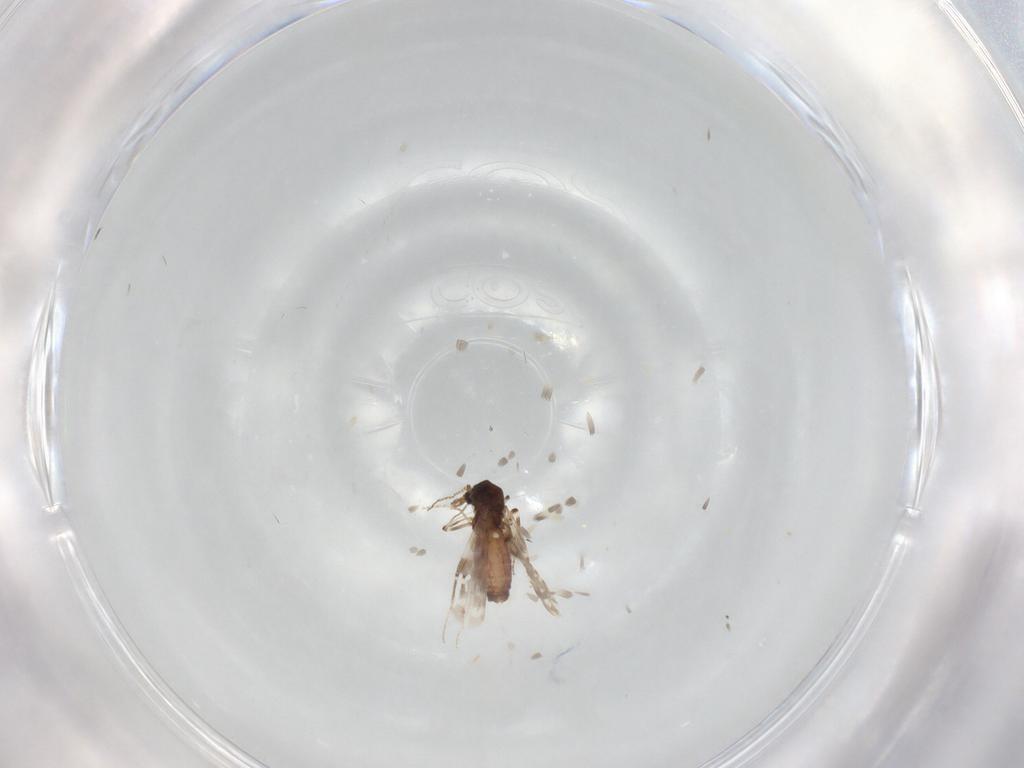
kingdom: Animalia
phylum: Arthropoda
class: Insecta
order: Diptera
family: Ceratopogonidae
